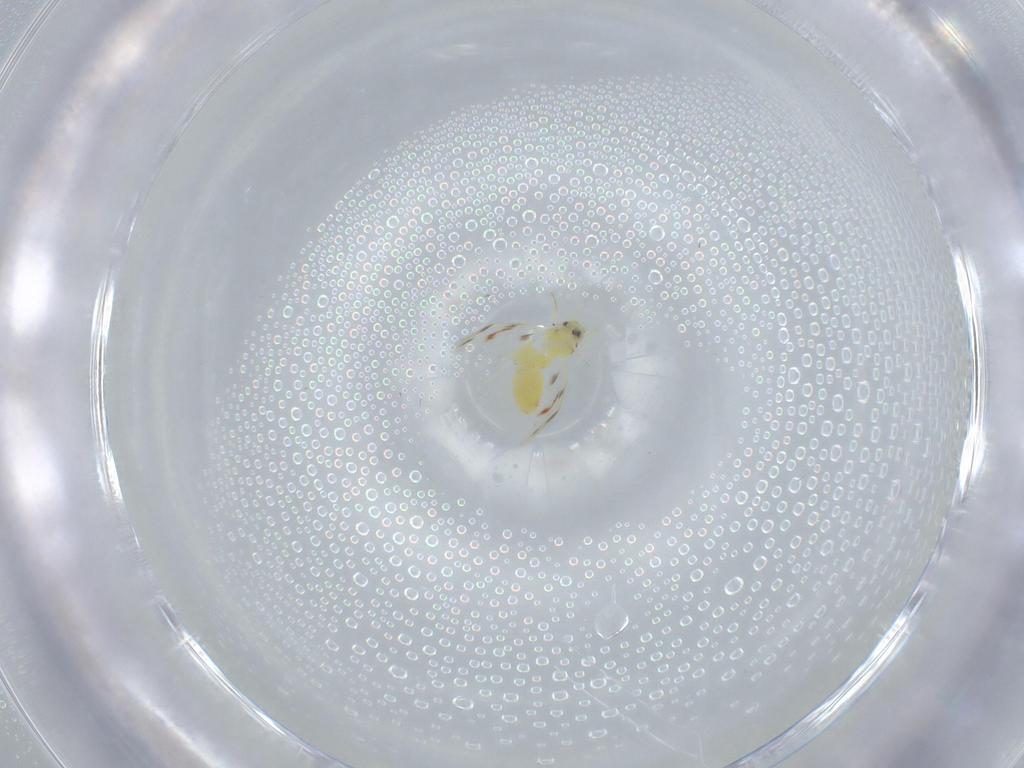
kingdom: Animalia
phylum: Arthropoda
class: Insecta
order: Hemiptera
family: Aleyrodidae
